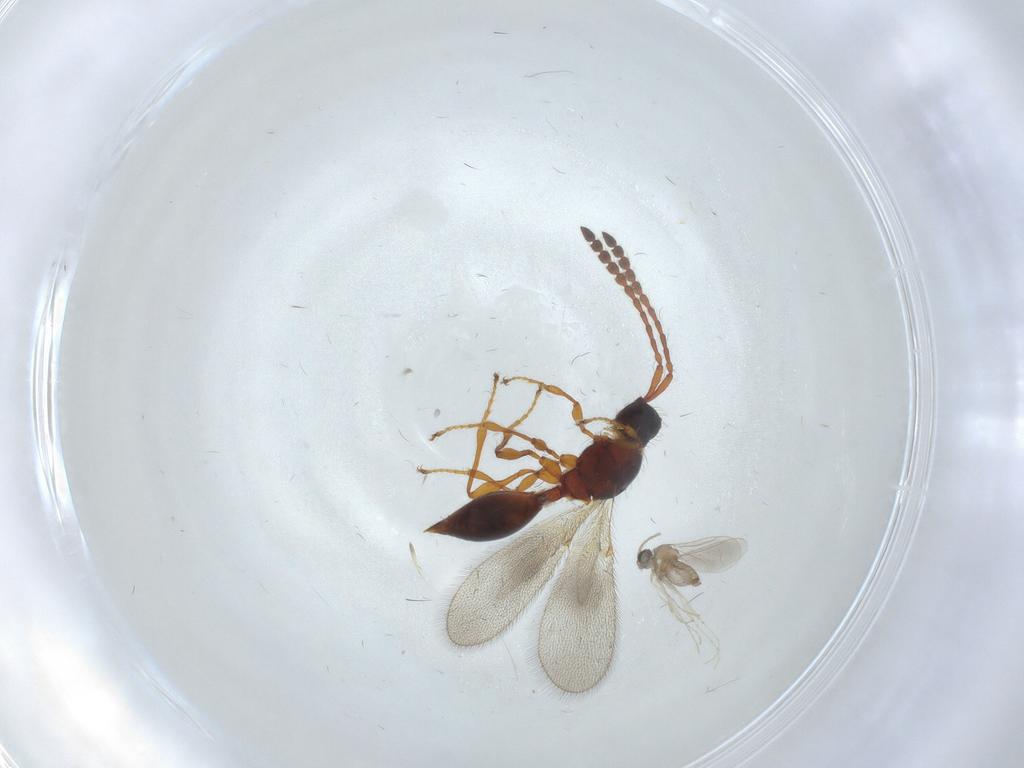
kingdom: Animalia
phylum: Arthropoda
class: Insecta
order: Hymenoptera
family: Diapriidae
